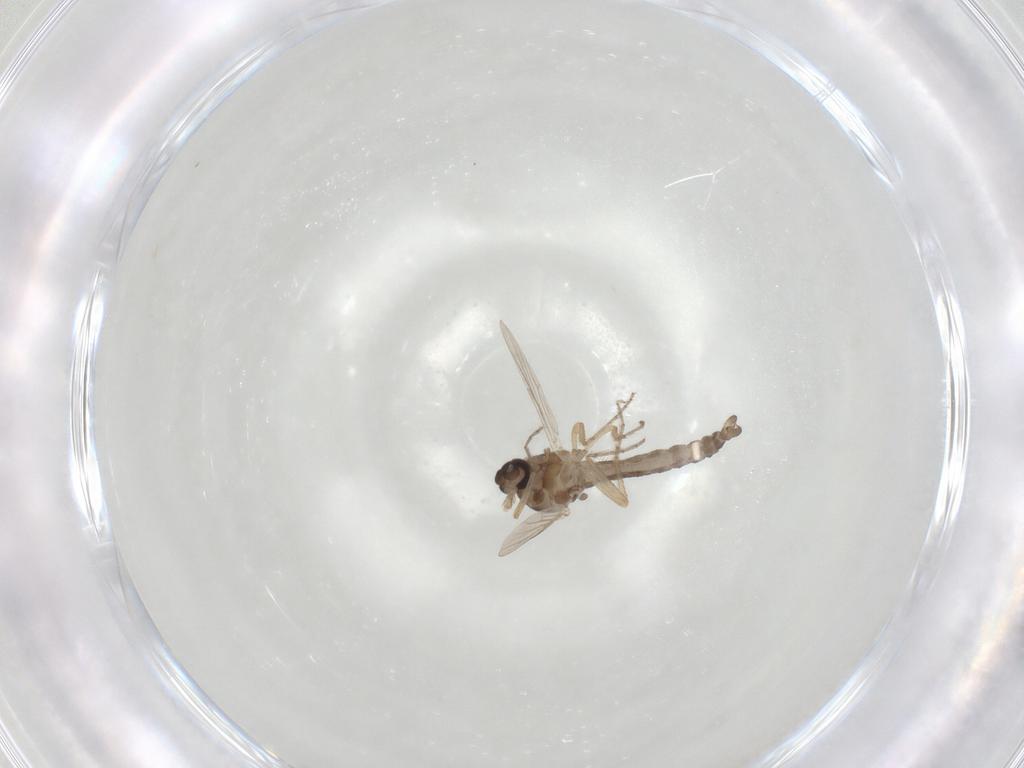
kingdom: Animalia
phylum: Arthropoda
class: Insecta
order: Diptera
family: Ceratopogonidae
